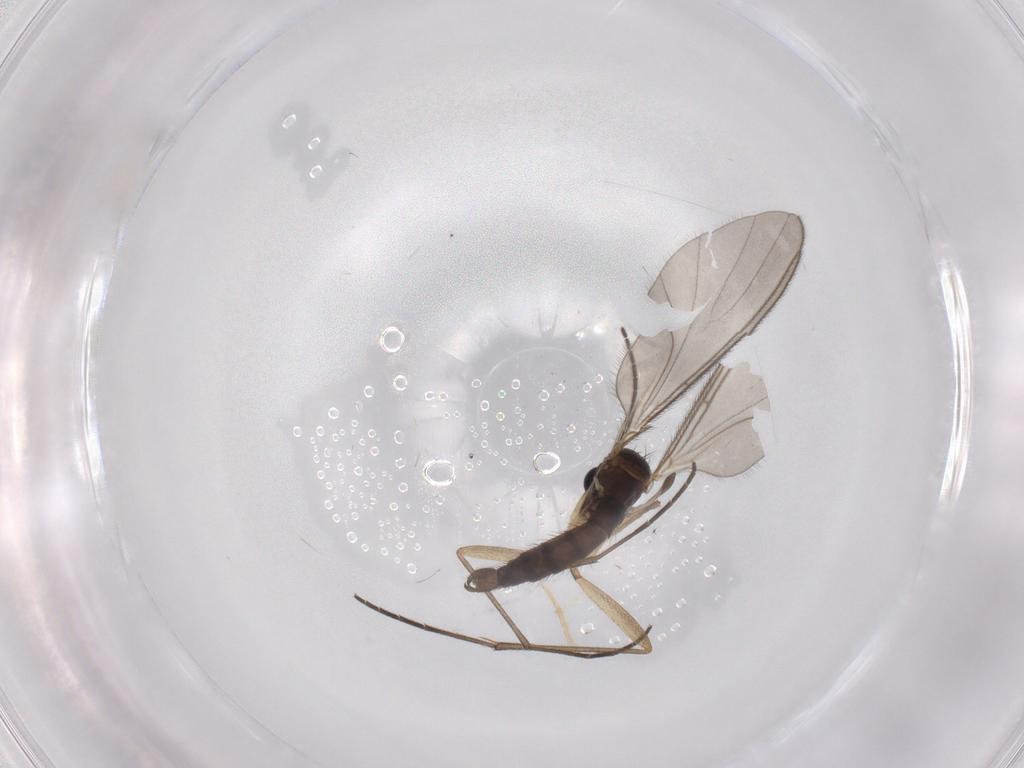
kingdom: Animalia
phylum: Arthropoda
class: Insecta
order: Diptera
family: Sciaridae
